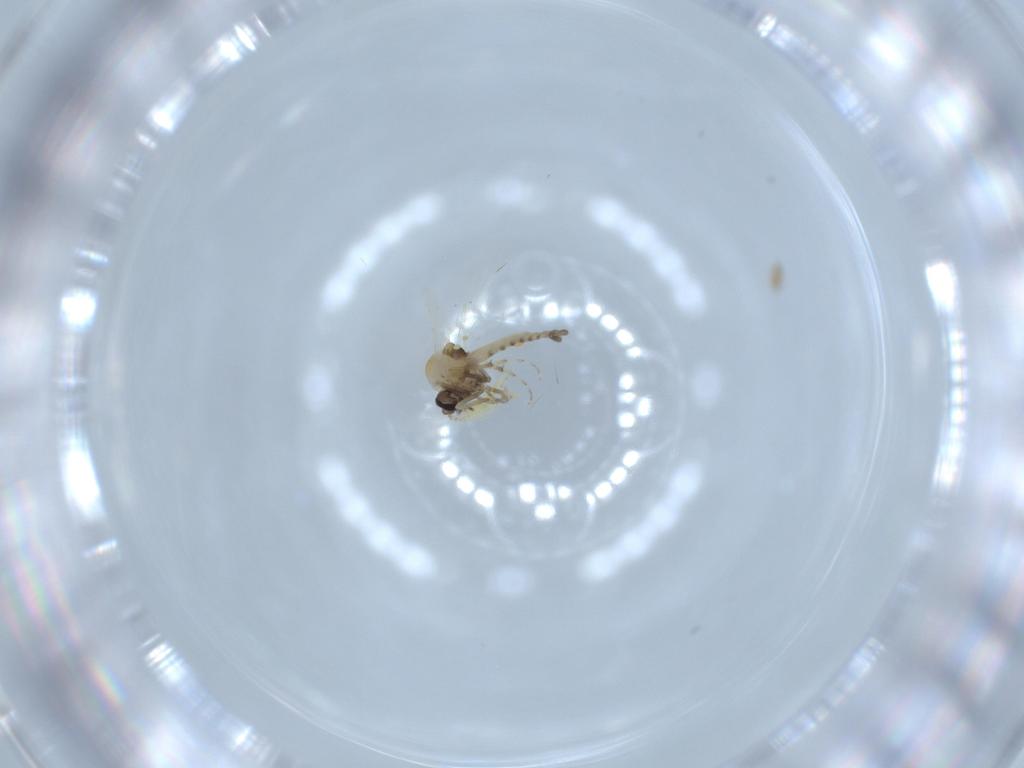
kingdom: Animalia
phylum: Arthropoda
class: Insecta
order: Diptera
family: Ceratopogonidae
